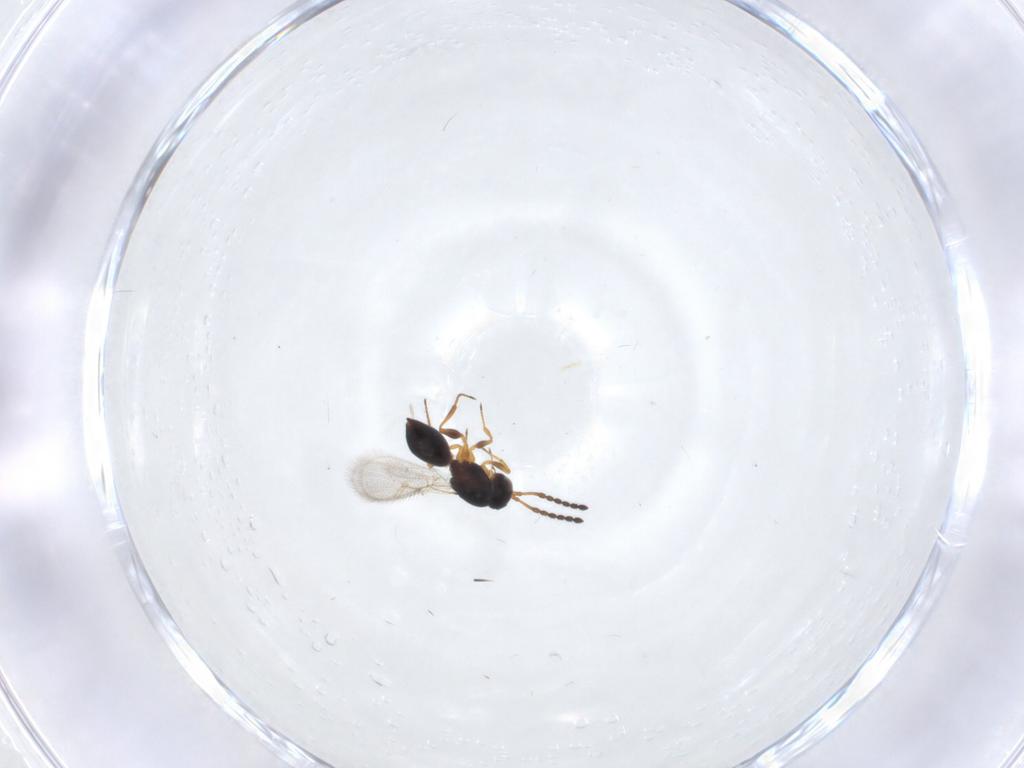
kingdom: Animalia
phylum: Arthropoda
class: Insecta
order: Hymenoptera
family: Figitidae
